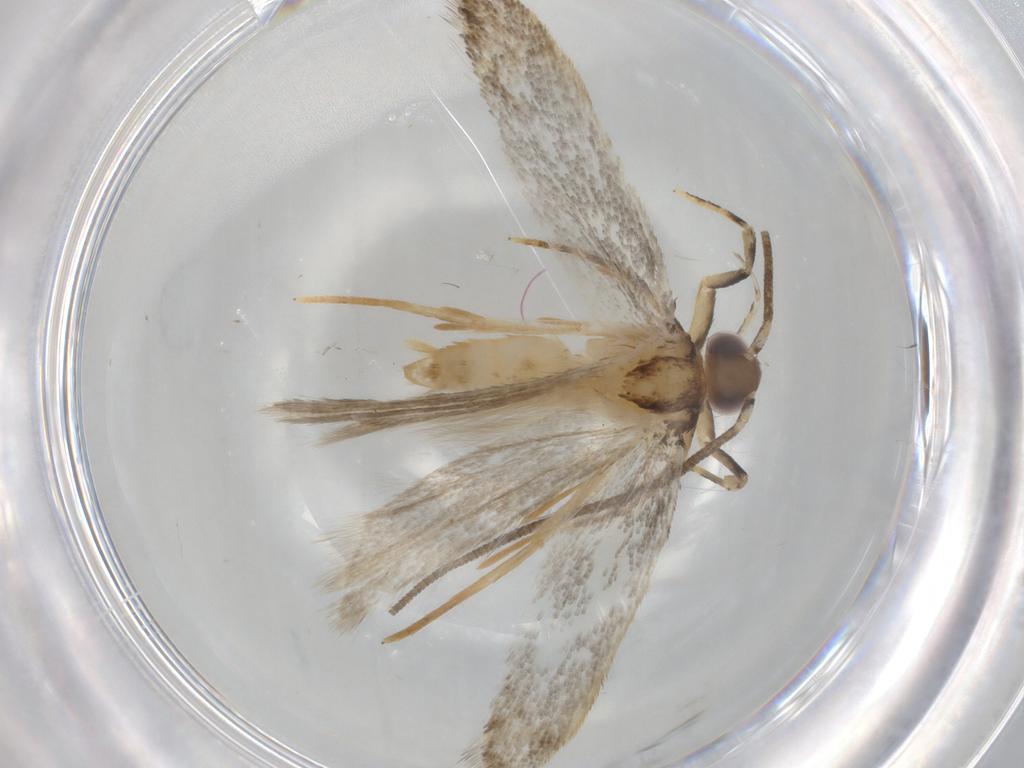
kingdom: Animalia
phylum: Arthropoda
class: Insecta
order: Lepidoptera
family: Autostichidae
